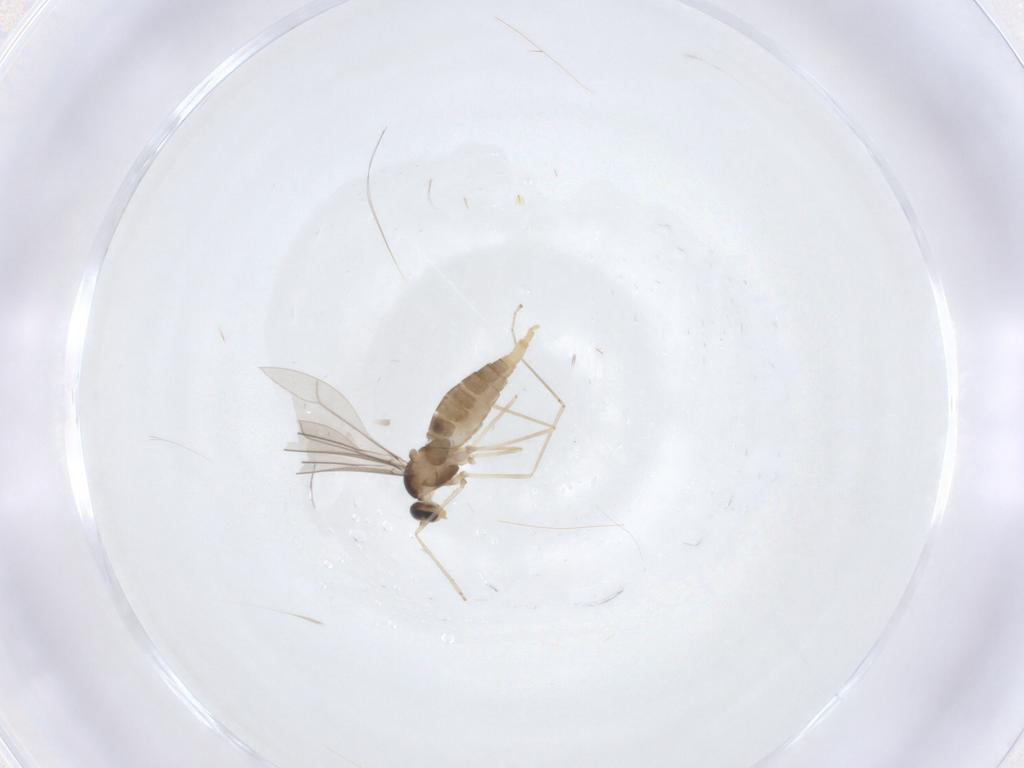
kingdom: Animalia
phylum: Arthropoda
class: Insecta
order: Diptera
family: Cecidomyiidae
